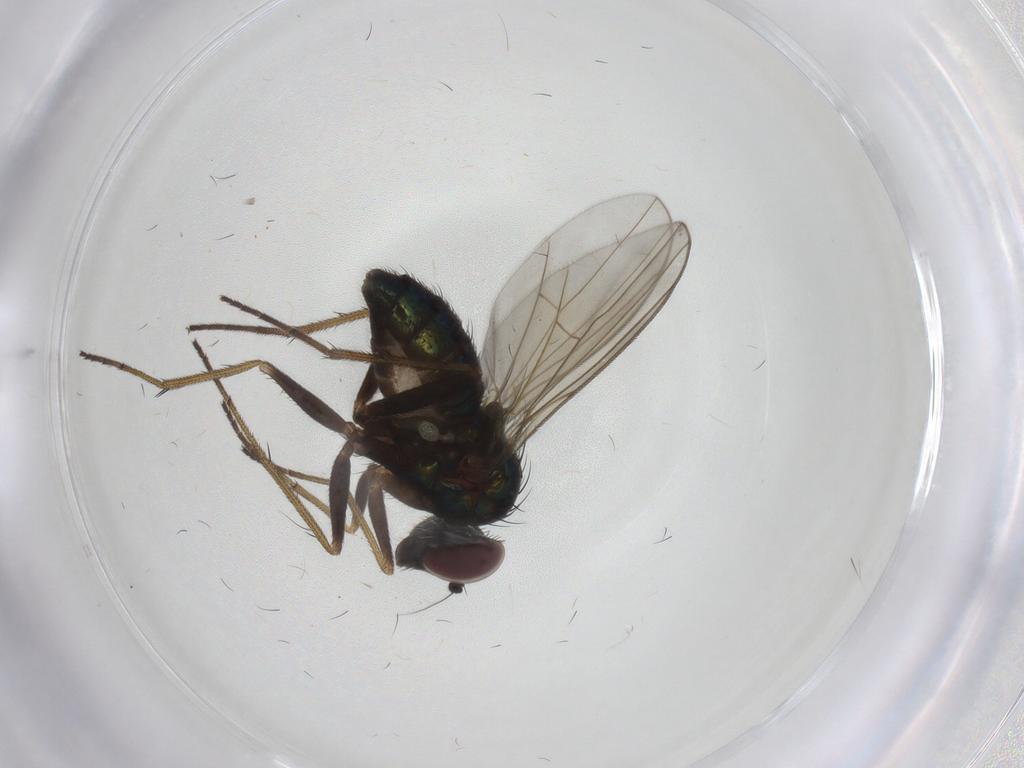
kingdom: Animalia
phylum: Arthropoda
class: Insecta
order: Diptera
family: Dolichopodidae
